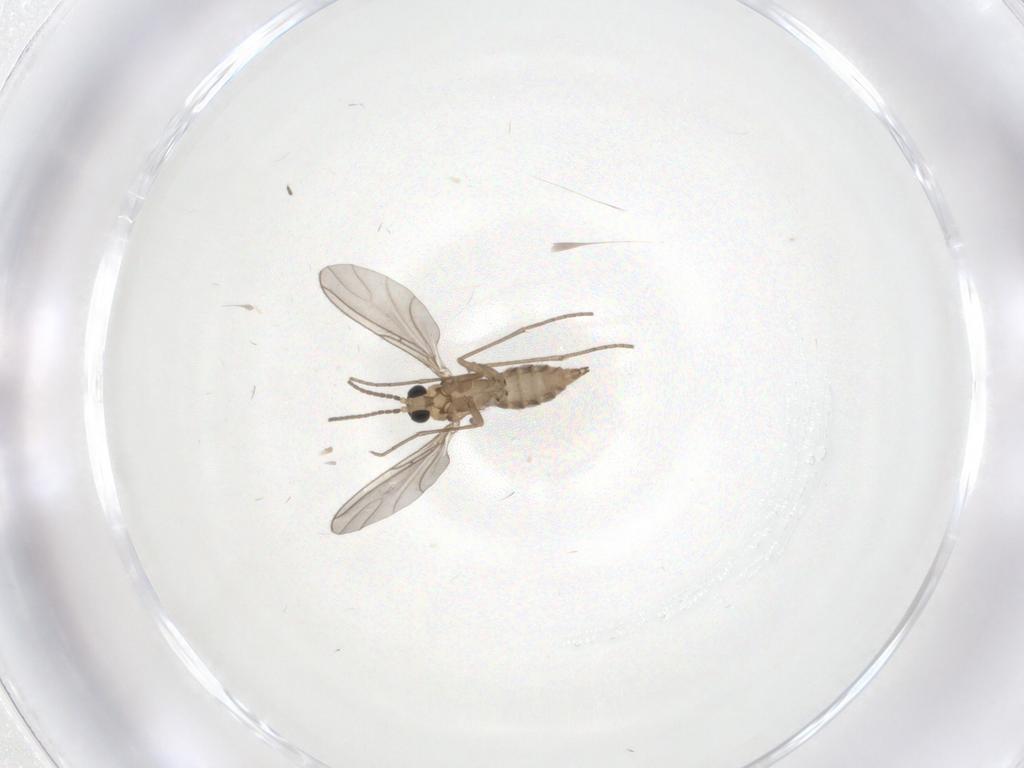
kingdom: Animalia
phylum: Arthropoda
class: Insecta
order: Diptera
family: Sciaridae
